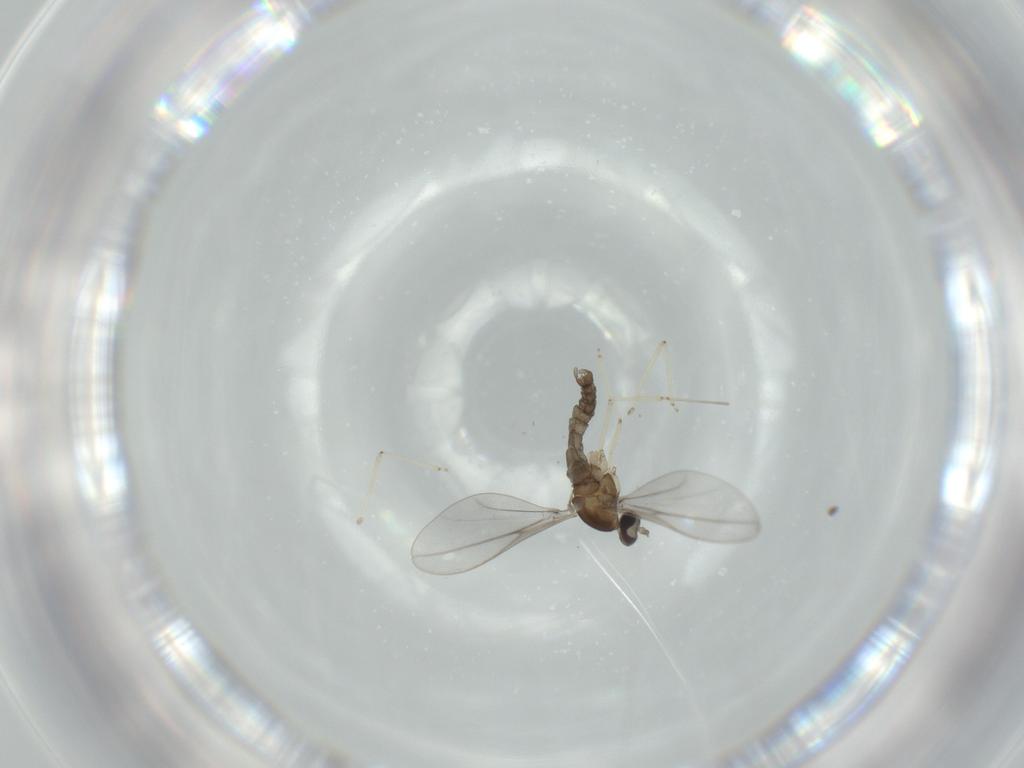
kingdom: Animalia
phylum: Arthropoda
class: Insecta
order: Diptera
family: Cecidomyiidae
